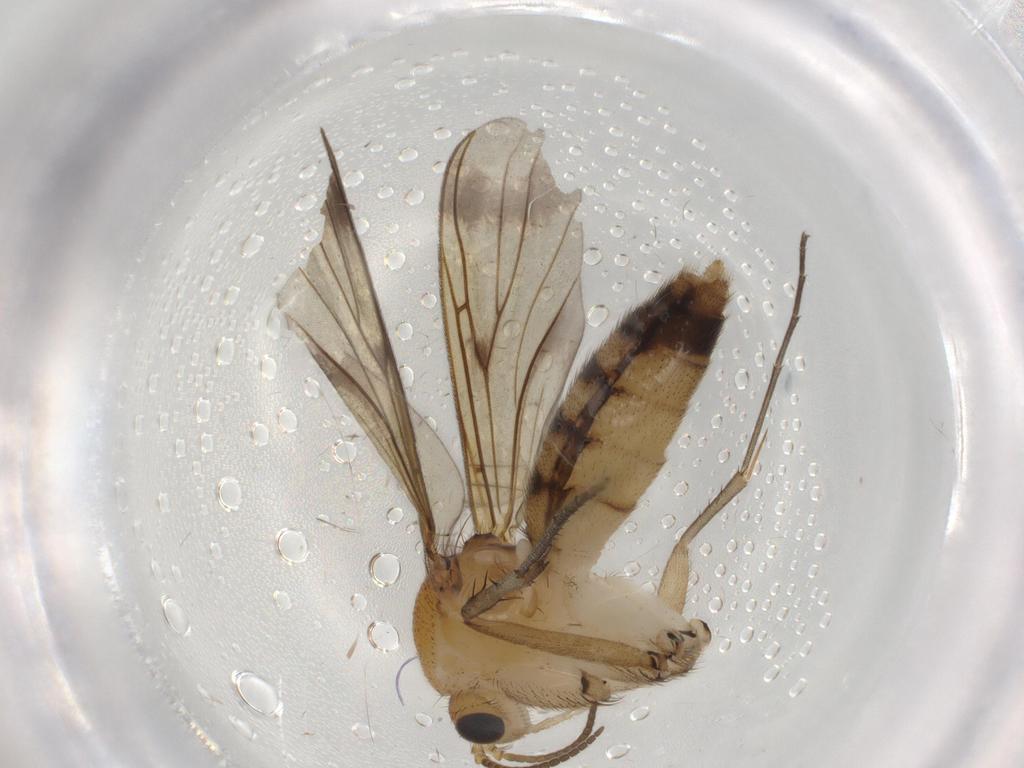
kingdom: Animalia
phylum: Arthropoda
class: Insecta
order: Diptera
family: Mycetophilidae
